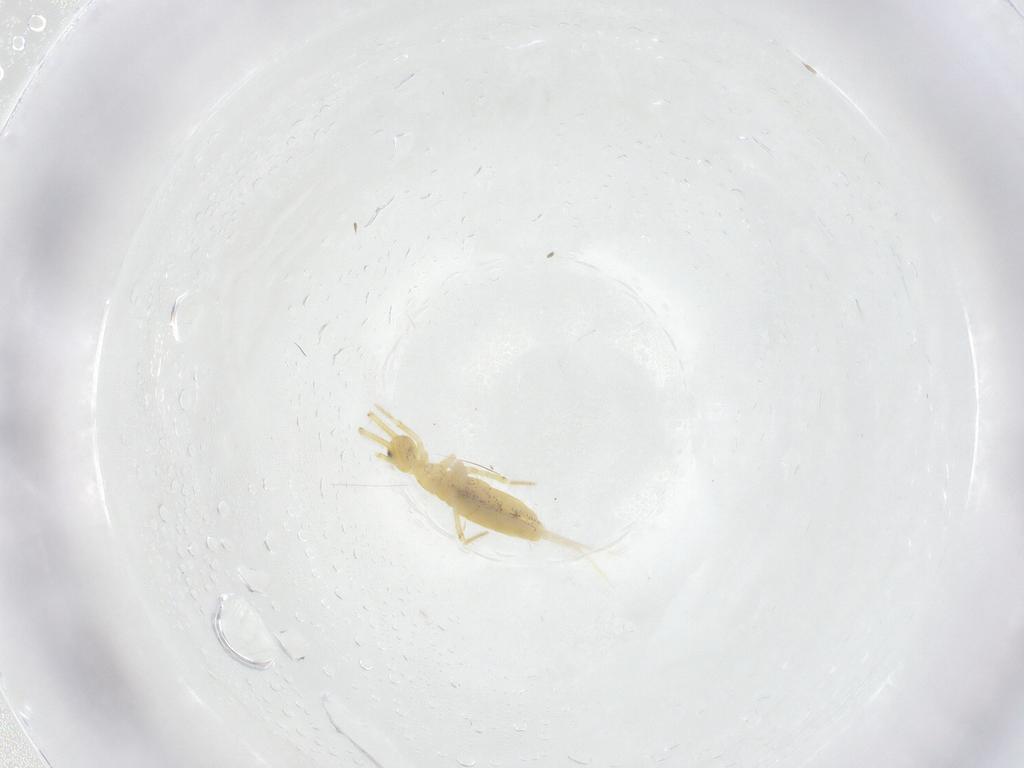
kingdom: Animalia
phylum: Arthropoda
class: Collembola
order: Entomobryomorpha
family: Paronellidae
